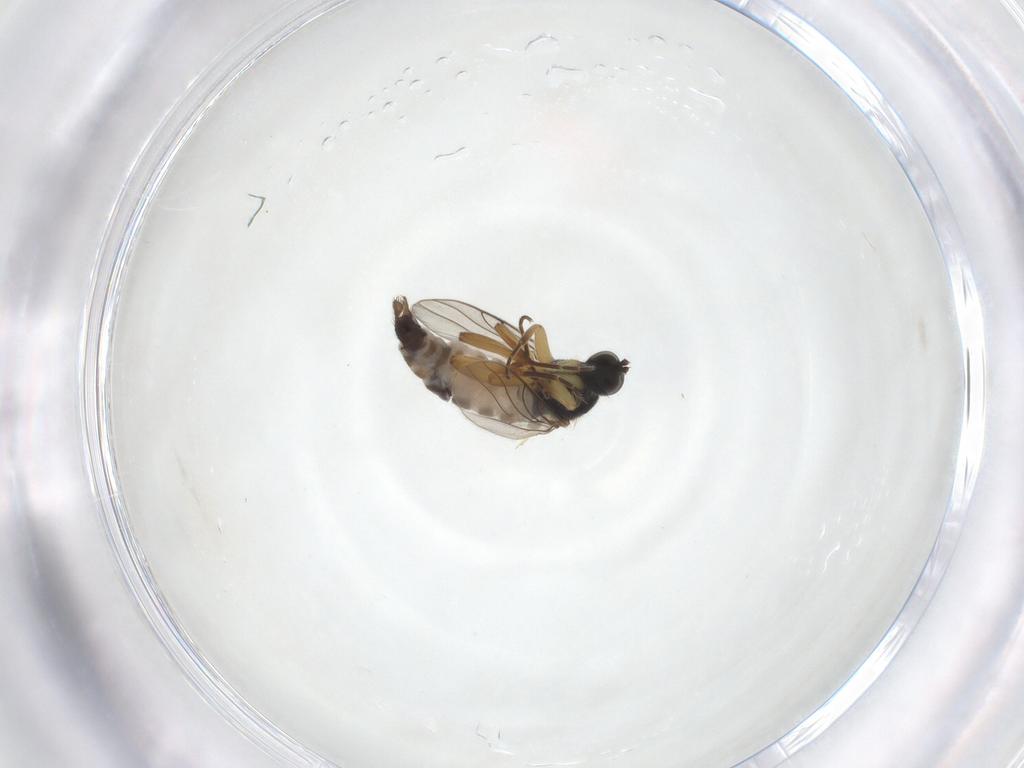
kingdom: Animalia
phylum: Arthropoda
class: Insecta
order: Diptera
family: Hybotidae
